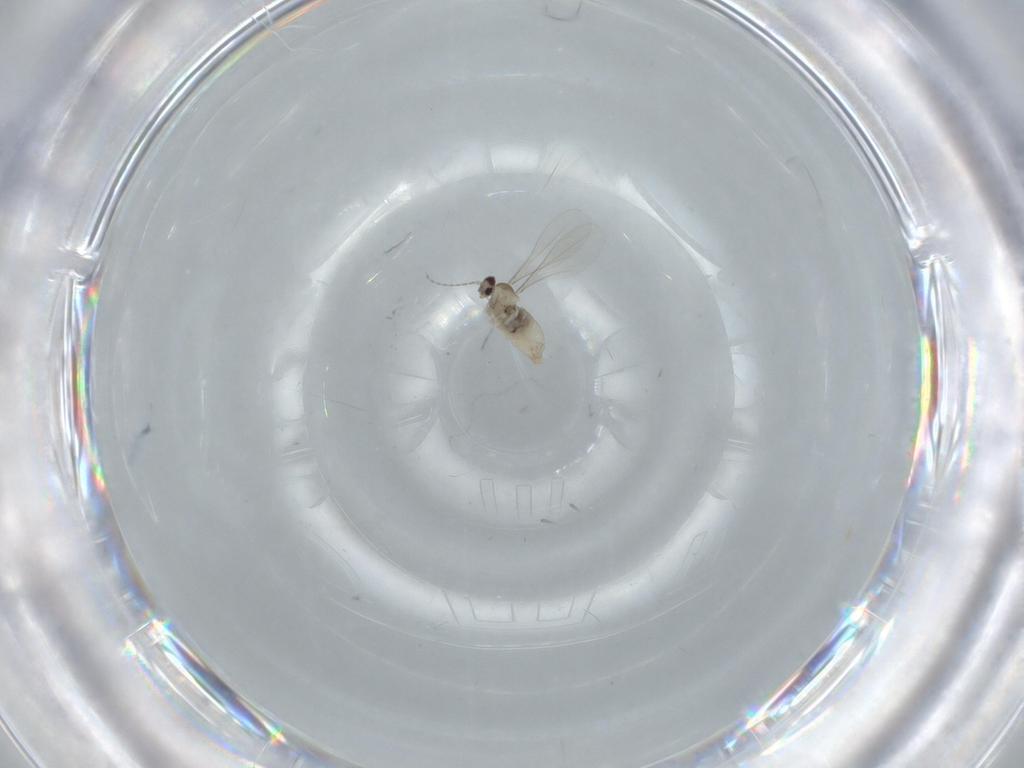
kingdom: Animalia
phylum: Arthropoda
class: Insecta
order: Diptera
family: Cecidomyiidae
